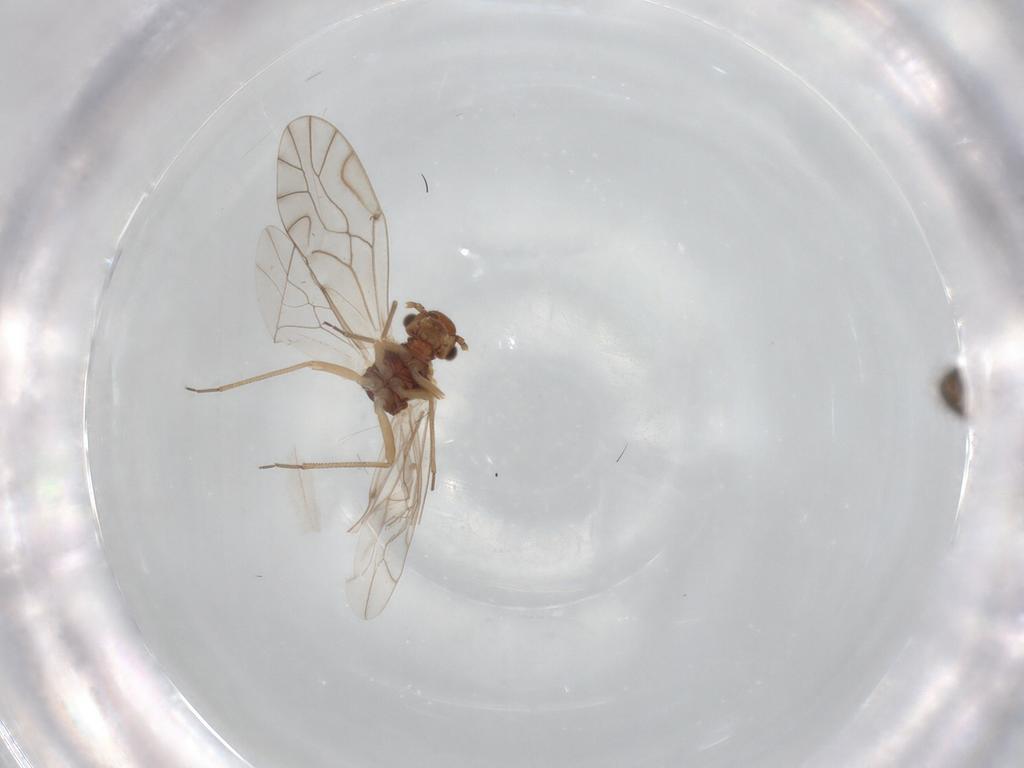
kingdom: Animalia
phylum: Arthropoda
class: Insecta
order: Psocodea
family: Lachesillidae
